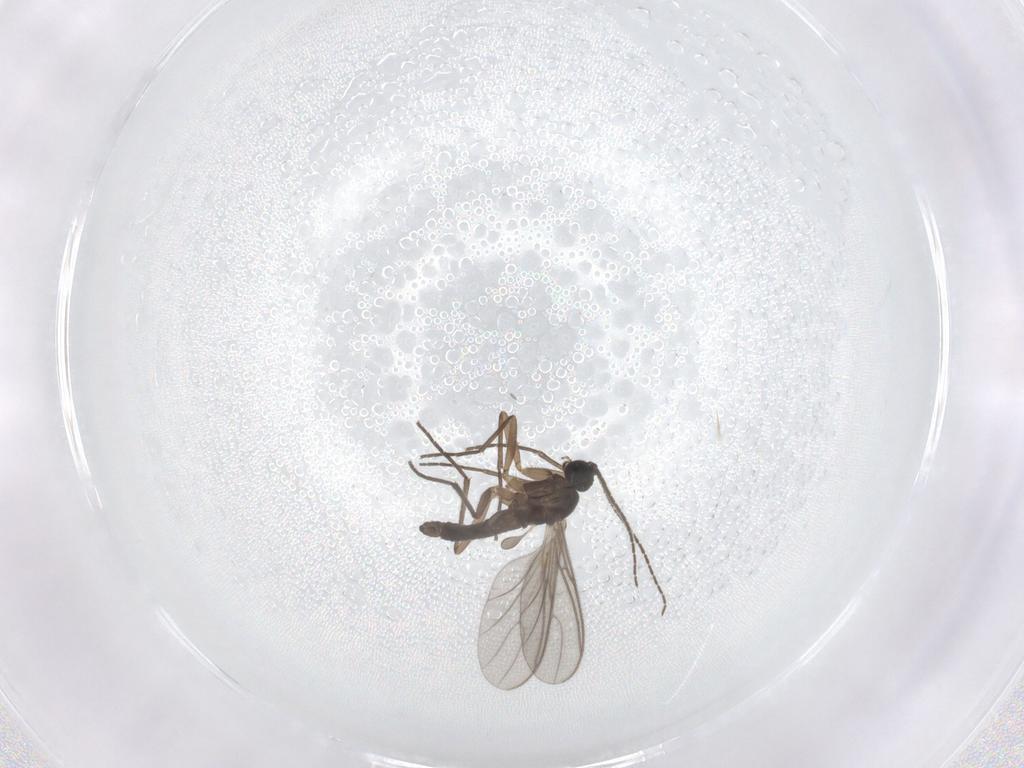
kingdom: Animalia
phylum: Arthropoda
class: Insecta
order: Diptera
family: Sciaridae
